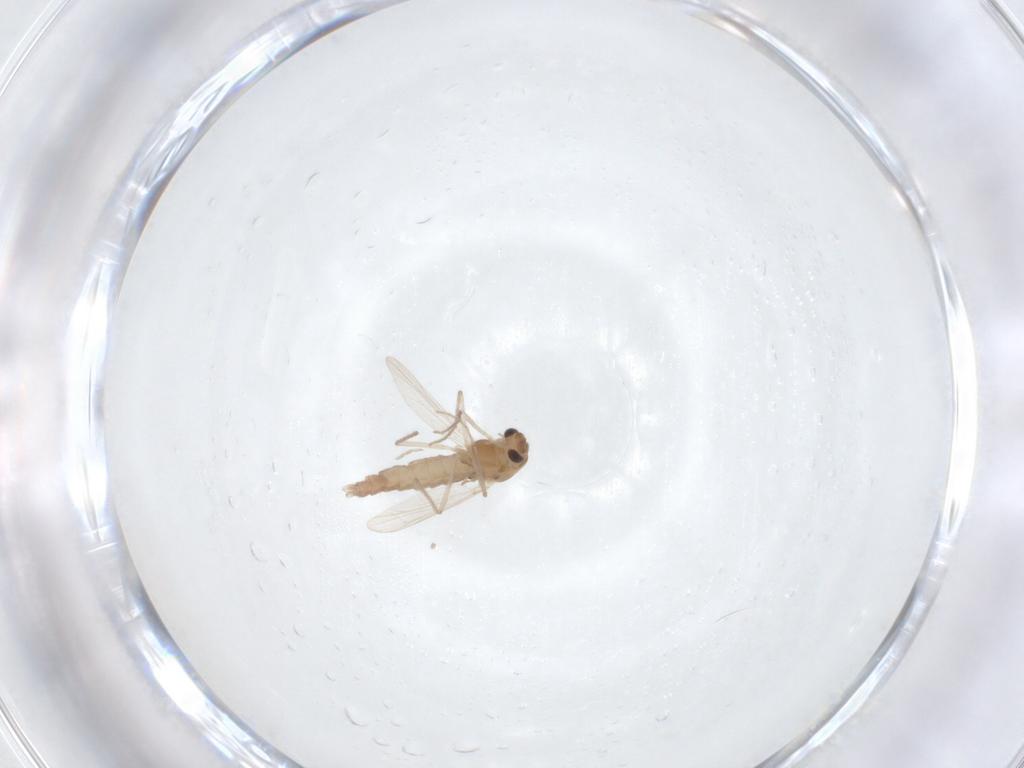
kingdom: Animalia
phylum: Arthropoda
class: Insecta
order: Diptera
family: Chironomidae
